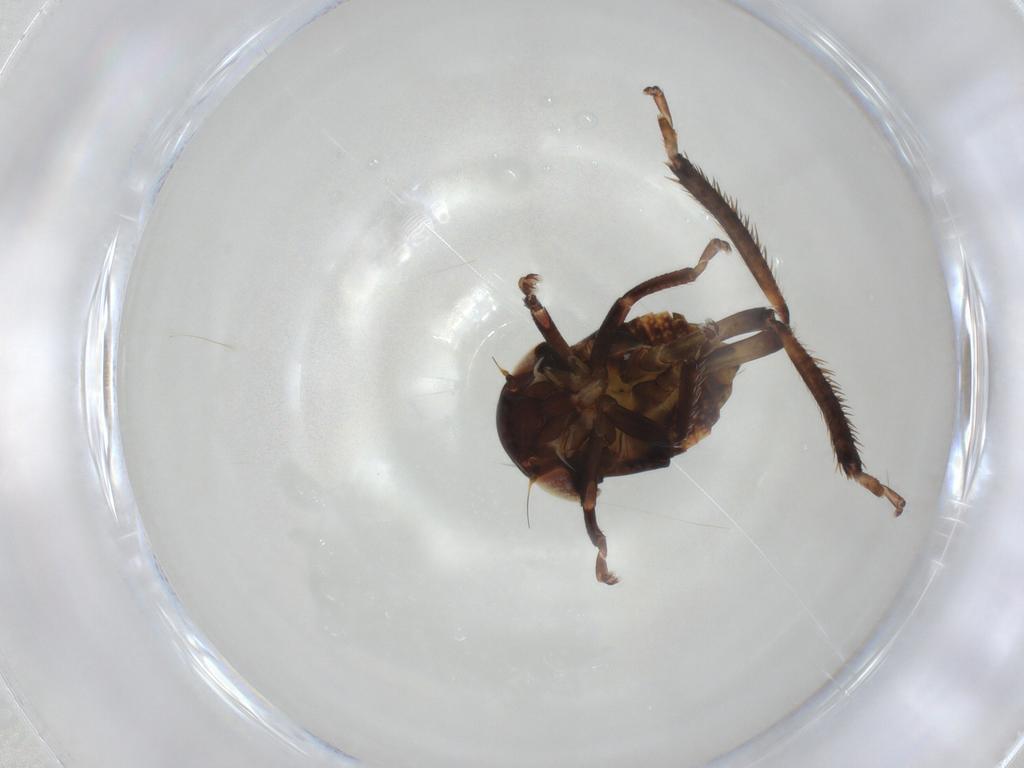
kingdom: Animalia
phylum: Arthropoda
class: Insecta
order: Hemiptera
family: Cicadellidae
